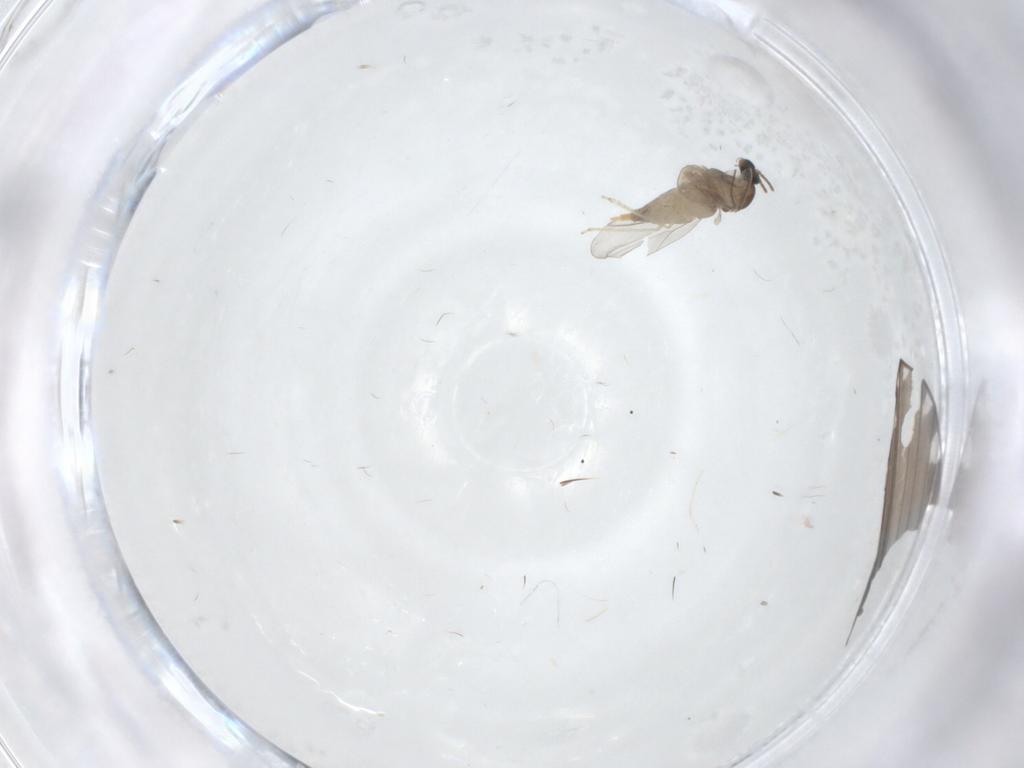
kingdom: Animalia
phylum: Arthropoda
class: Insecta
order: Diptera
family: Cecidomyiidae
